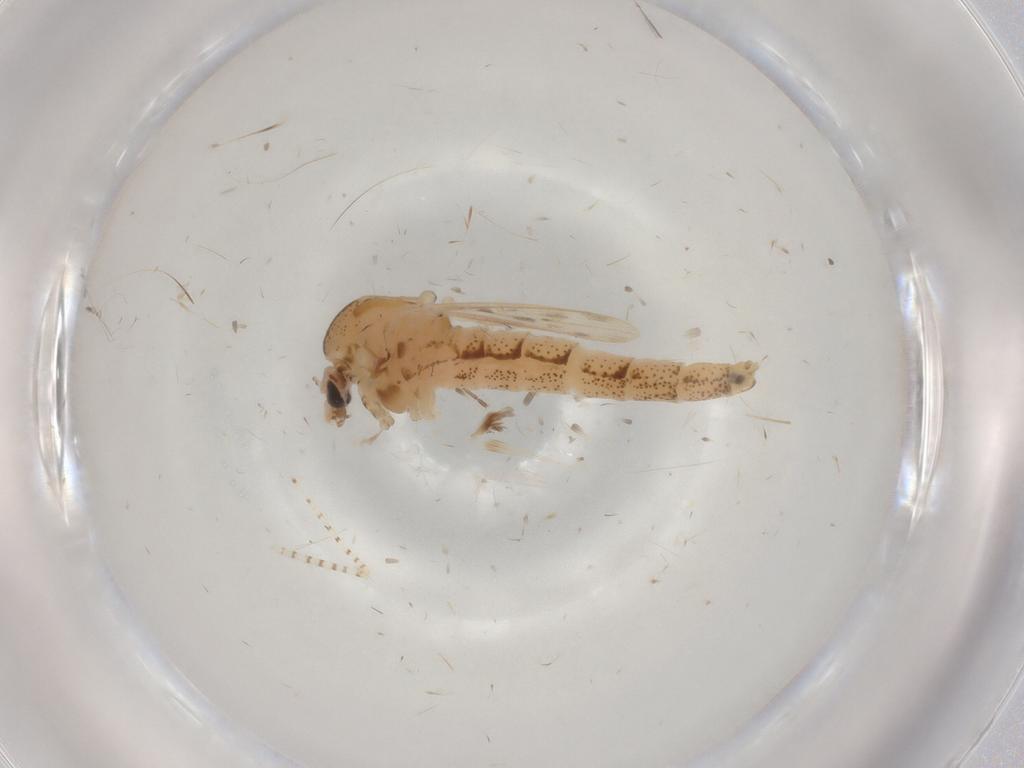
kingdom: Animalia
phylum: Arthropoda
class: Insecta
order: Diptera
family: Chaoboridae
